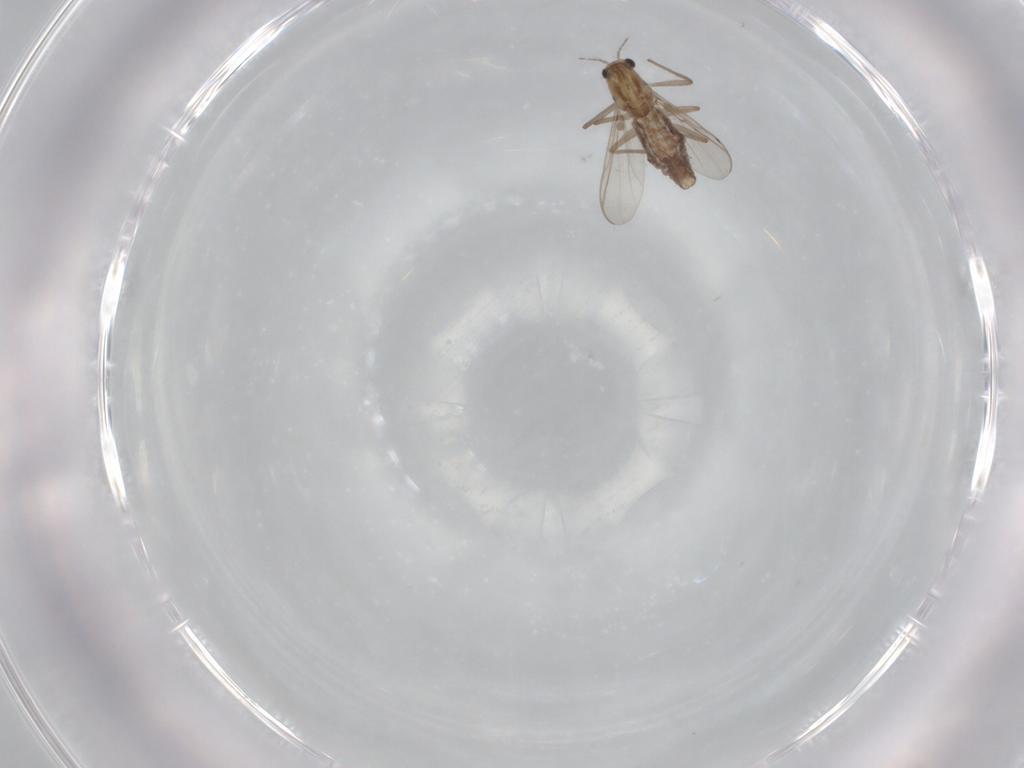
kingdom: Animalia
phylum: Arthropoda
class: Insecta
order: Diptera
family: Chironomidae
